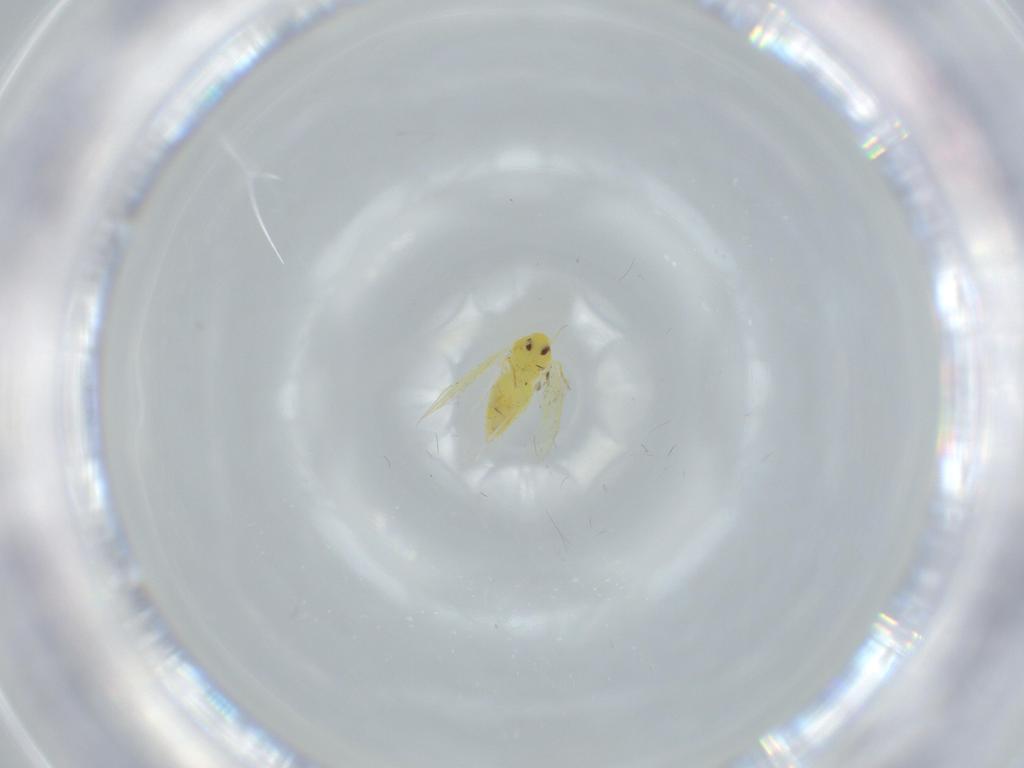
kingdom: Animalia
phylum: Arthropoda
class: Insecta
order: Hemiptera
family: Aleyrodidae
